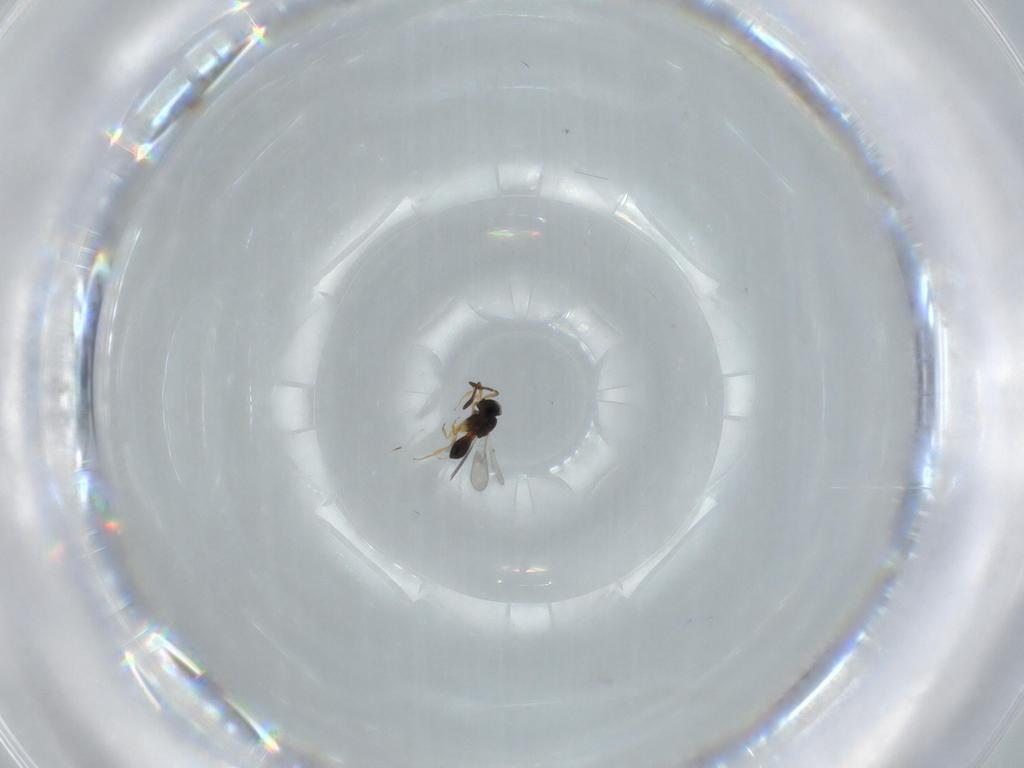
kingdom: Animalia
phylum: Arthropoda
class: Insecta
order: Hymenoptera
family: Scelionidae
